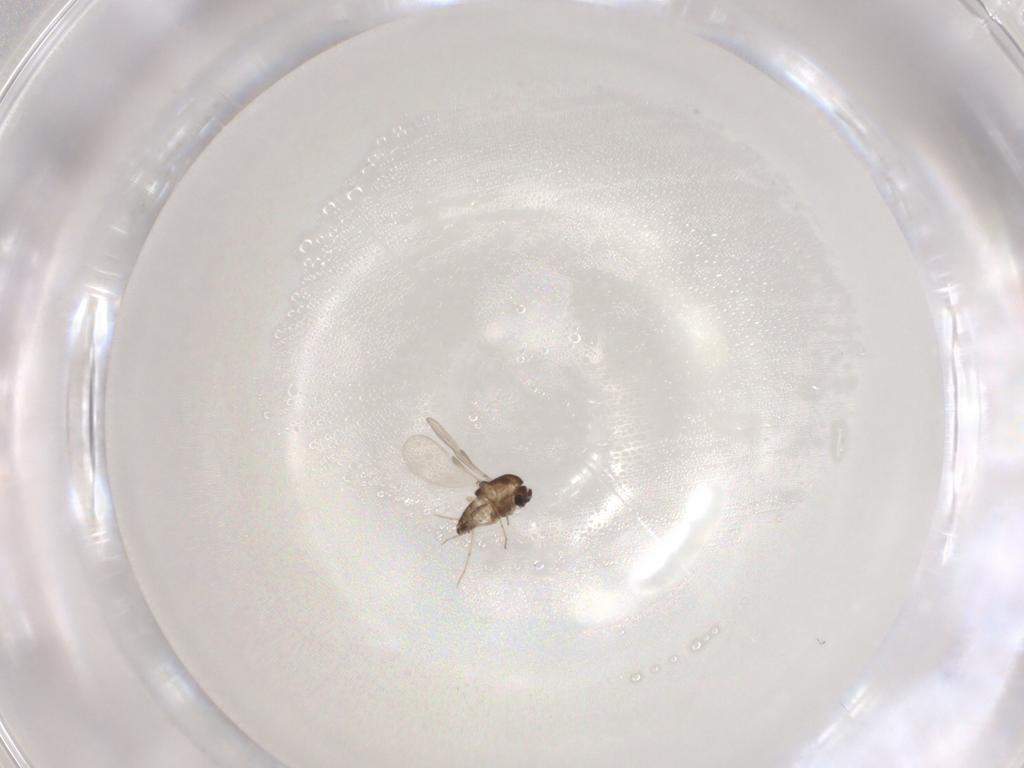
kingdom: Animalia
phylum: Arthropoda
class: Insecta
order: Diptera
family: Chironomidae
